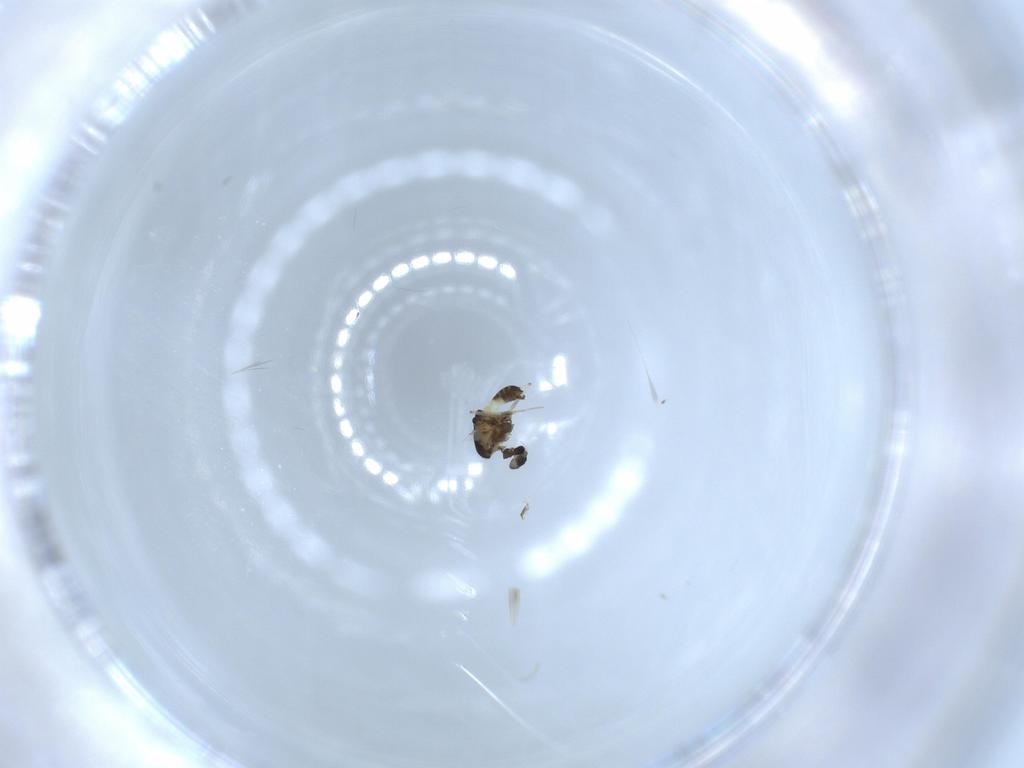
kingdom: Animalia
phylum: Arthropoda
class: Insecta
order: Diptera
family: Chironomidae
